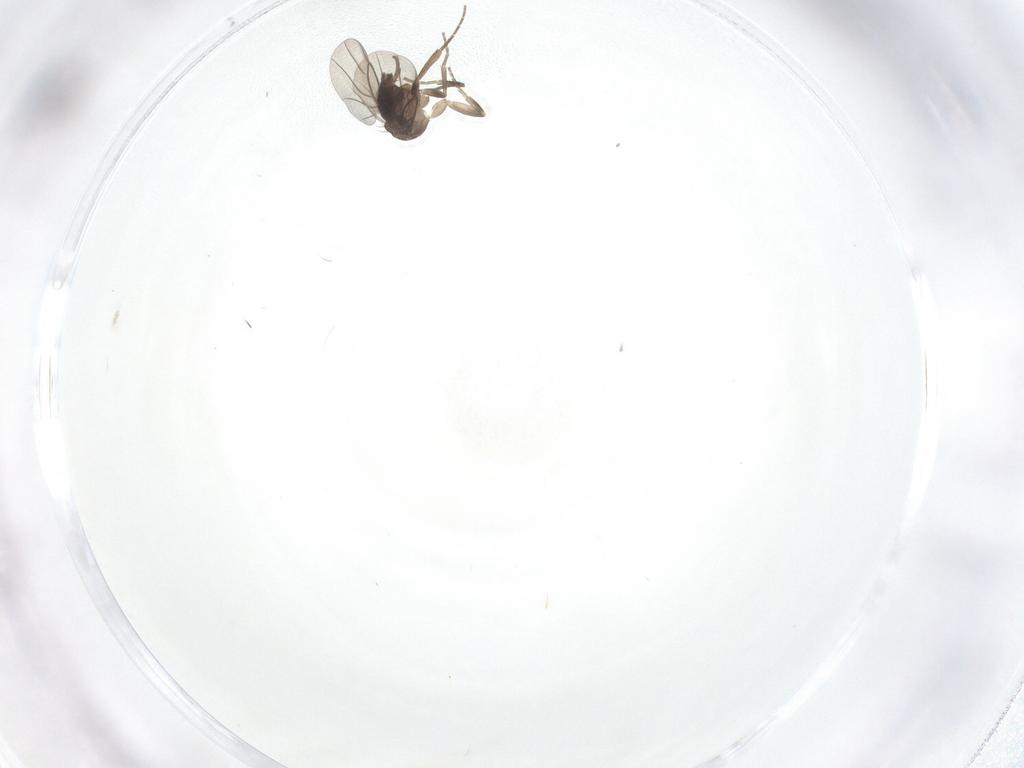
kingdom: Animalia
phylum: Arthropoda
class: Insecta
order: Diptera
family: Phoridae
